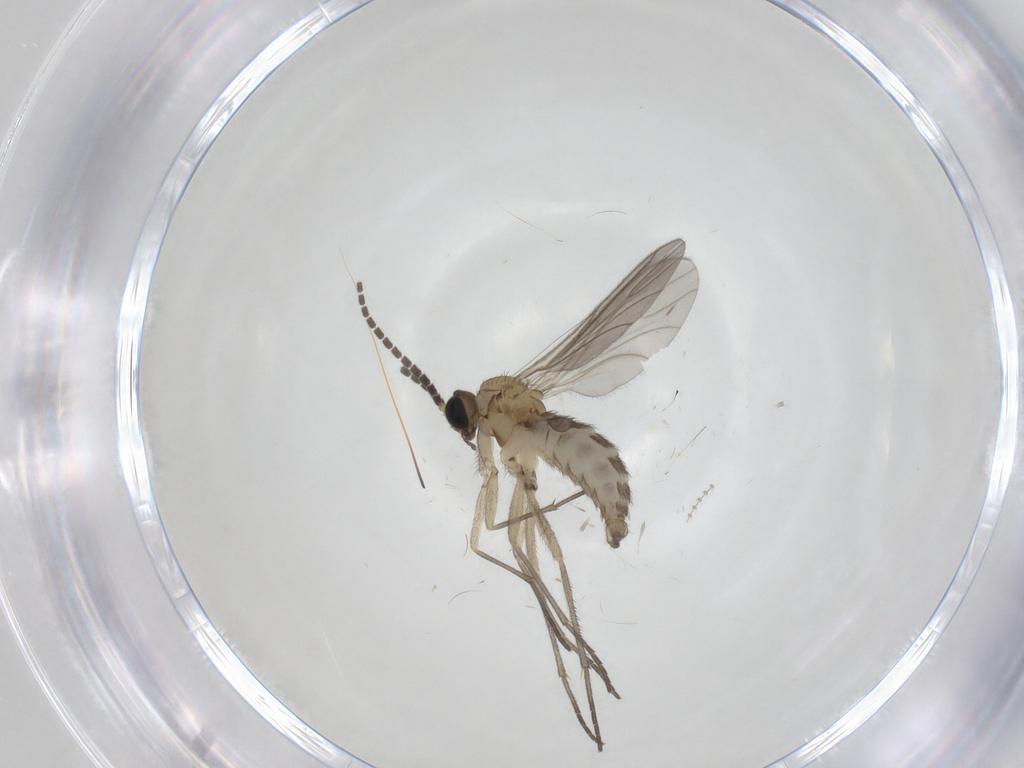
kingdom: Animalia
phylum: Arthropoda
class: Insecta
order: Diptera
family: Sciaridae
